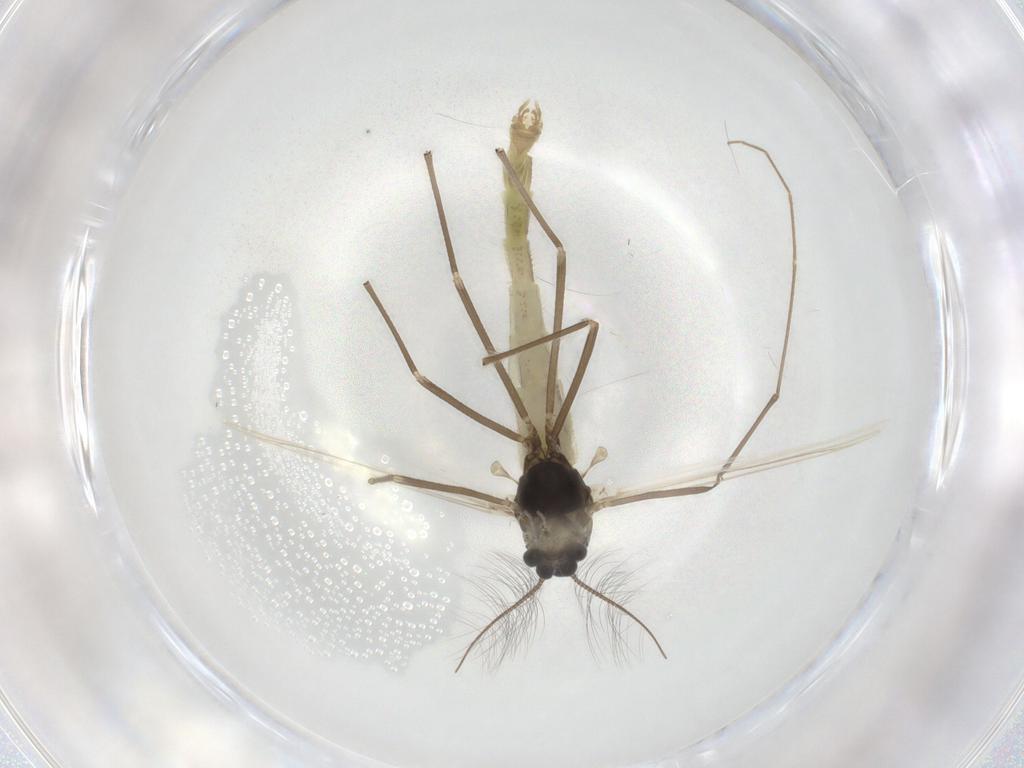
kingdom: Animalia
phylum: Arthropoda
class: Insecta
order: Diptera
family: Chironomidae
